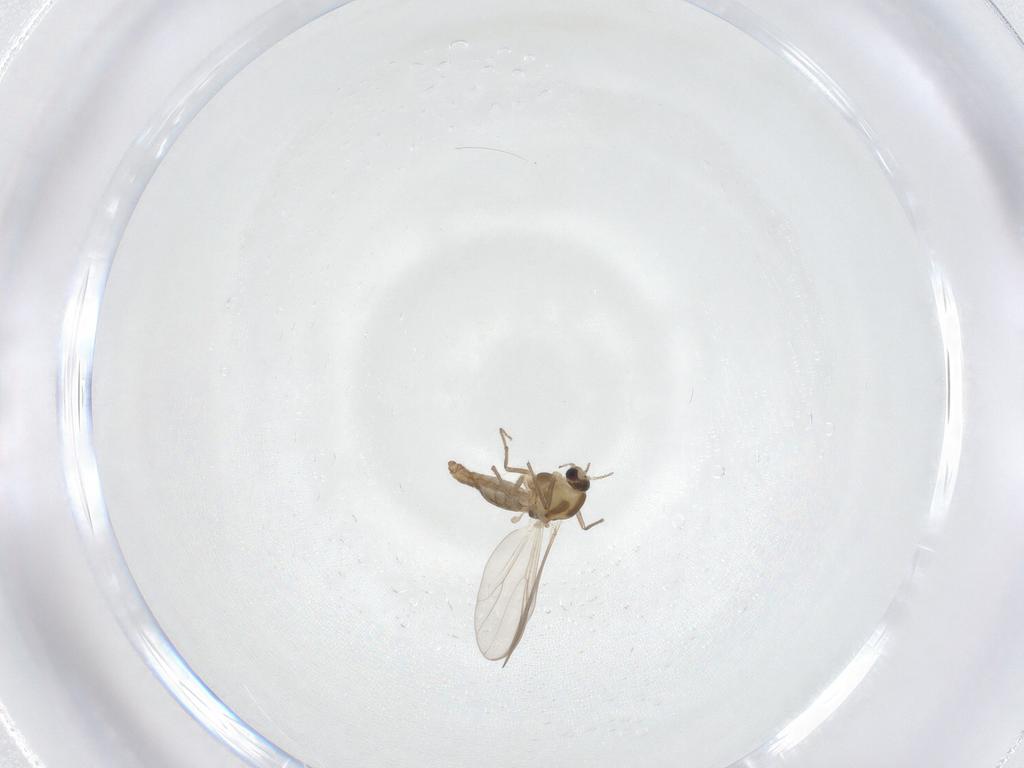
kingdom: Animalia
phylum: Arthropoda
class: Insecta
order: Diptera
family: Chironomidae
